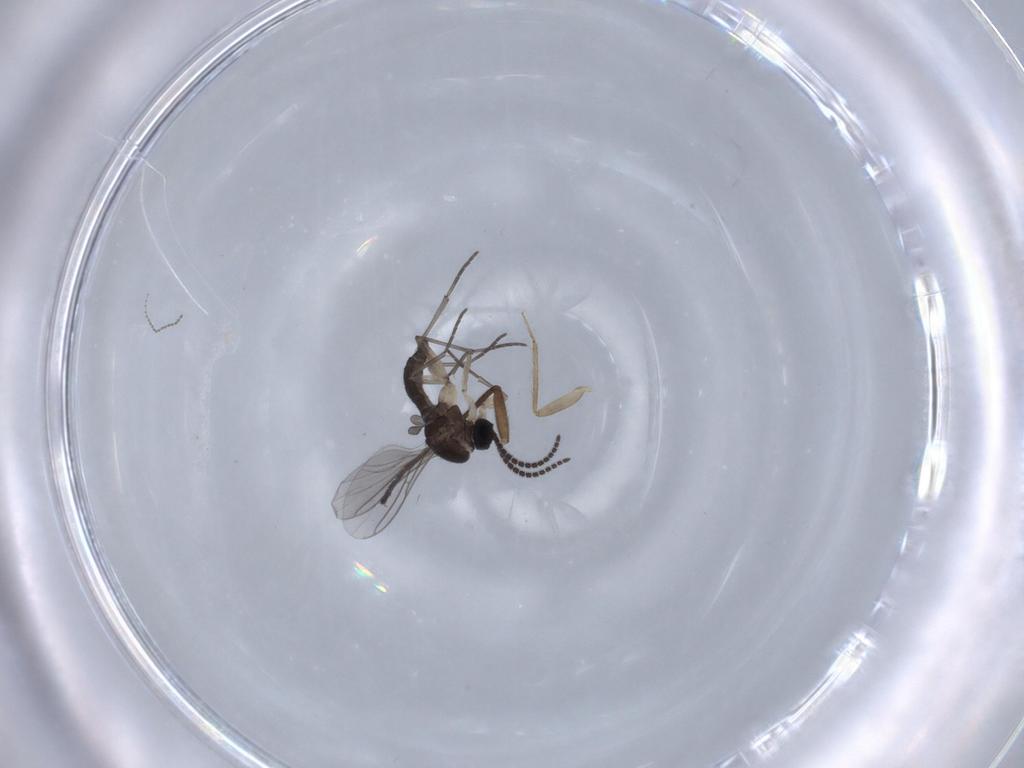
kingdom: Animalia
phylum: Arthropoda
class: Insecta
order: Diptera
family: Sciaridae
